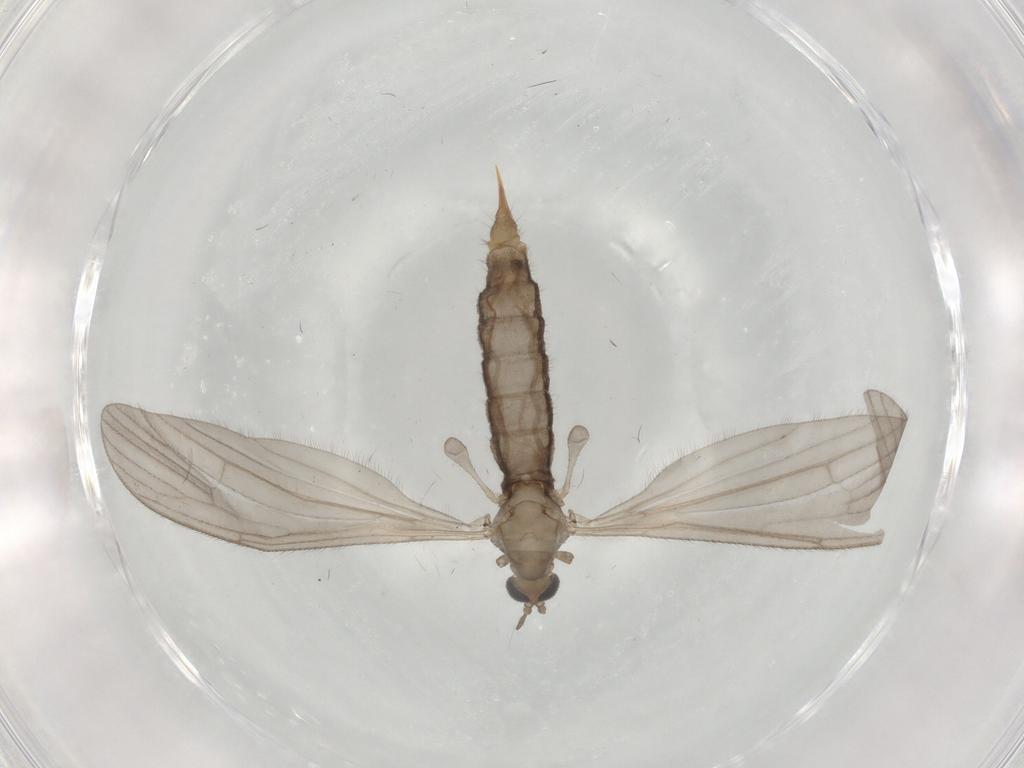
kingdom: Animalia
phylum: Arthropoda
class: Insecta
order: Diptera
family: Limoniidae
